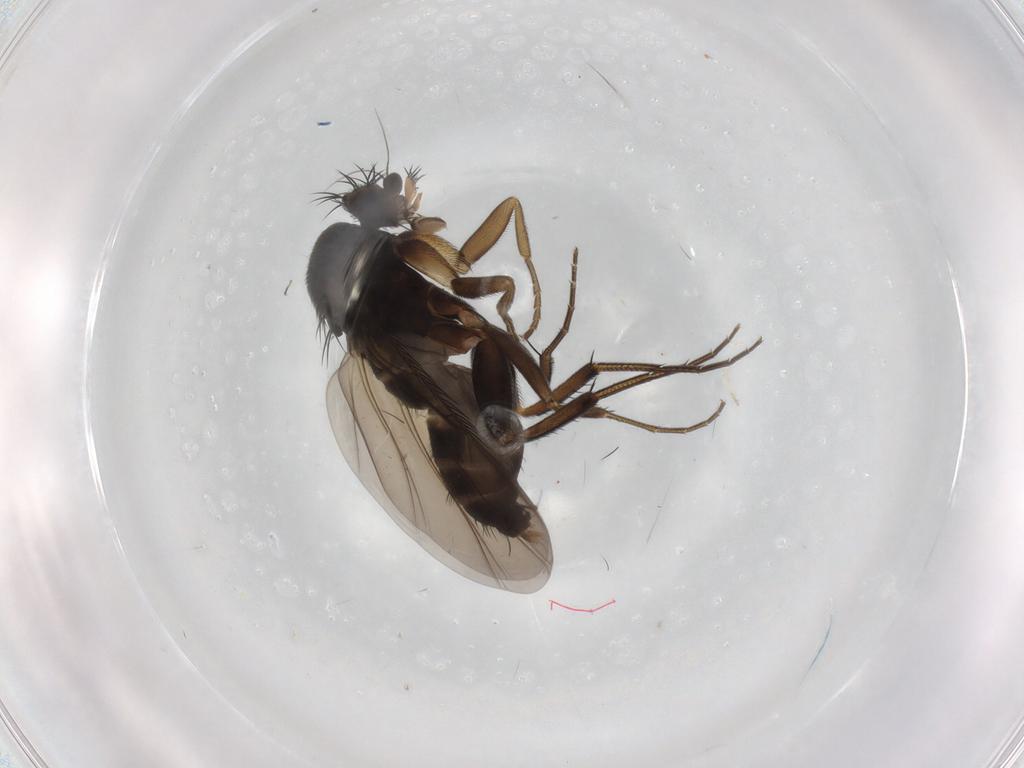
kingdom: Animalia
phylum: Arthropoda
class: Insecta
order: Diptera
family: Phoridae
